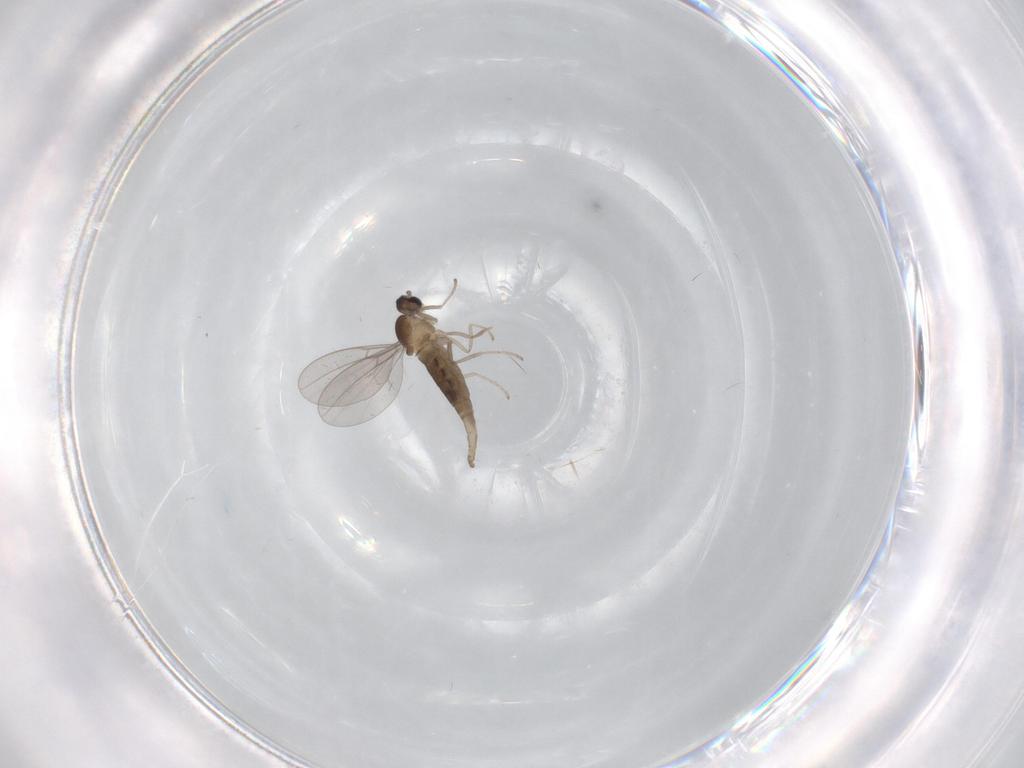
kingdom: Animalia
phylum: Arthropoda
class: Insecta
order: Diptera
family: Cecidomyiidae
